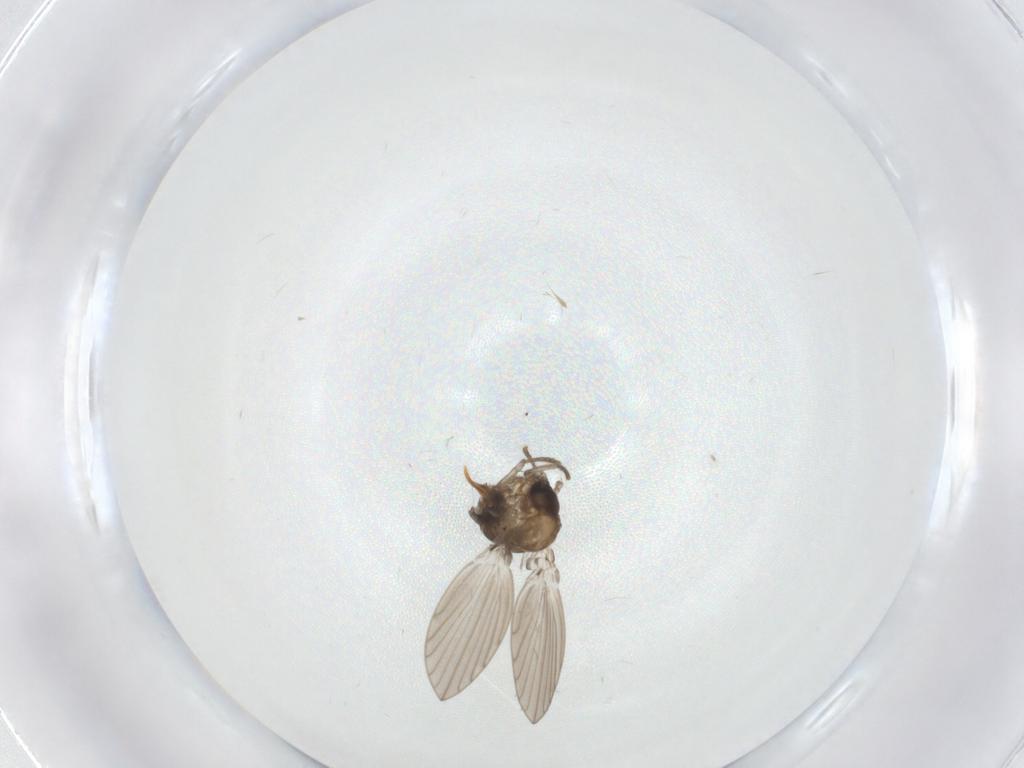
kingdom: Animalia
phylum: Arthropoda
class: Insecta
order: Diptera
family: Psychodidae
